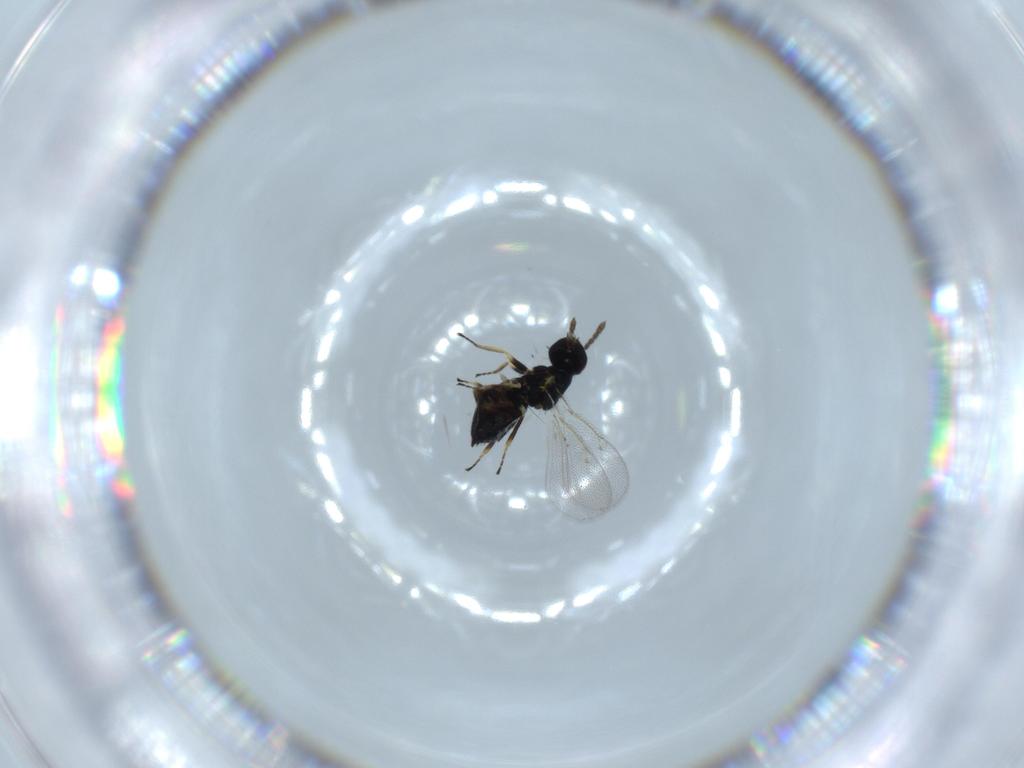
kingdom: Animalia
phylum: Arthropoda
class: Insecta
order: Hymenoptera
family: Eulophidae
